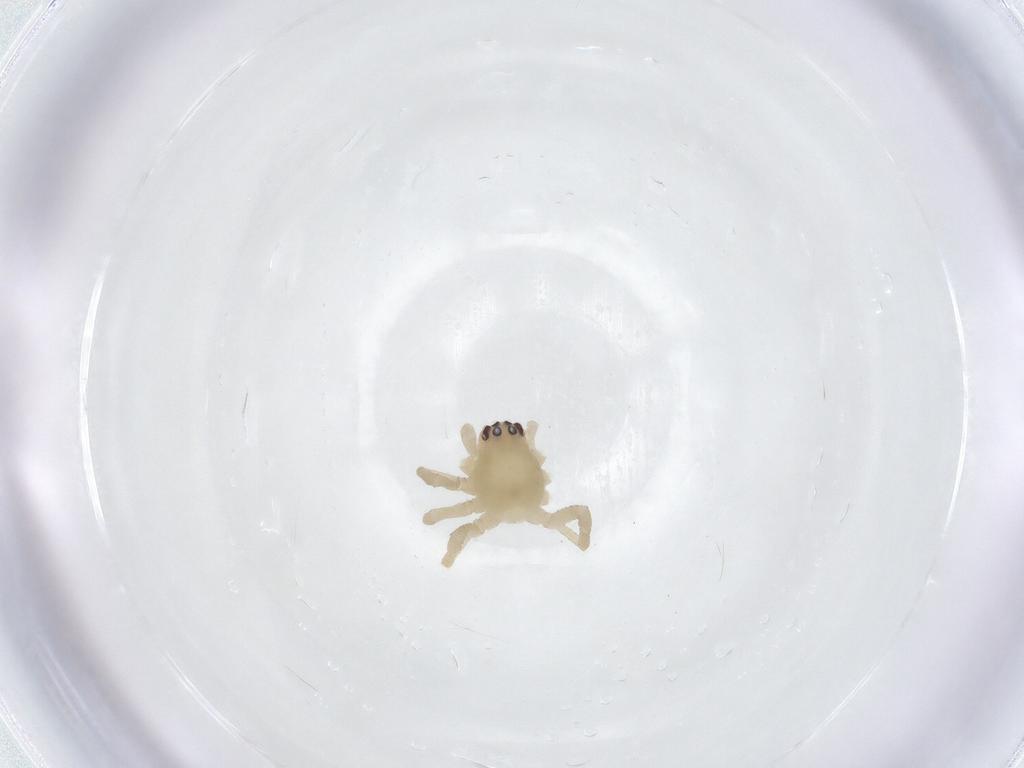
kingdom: Animalia
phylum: Arthropoda
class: Arachnida
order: Araneae
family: Cheiracanthiidae
